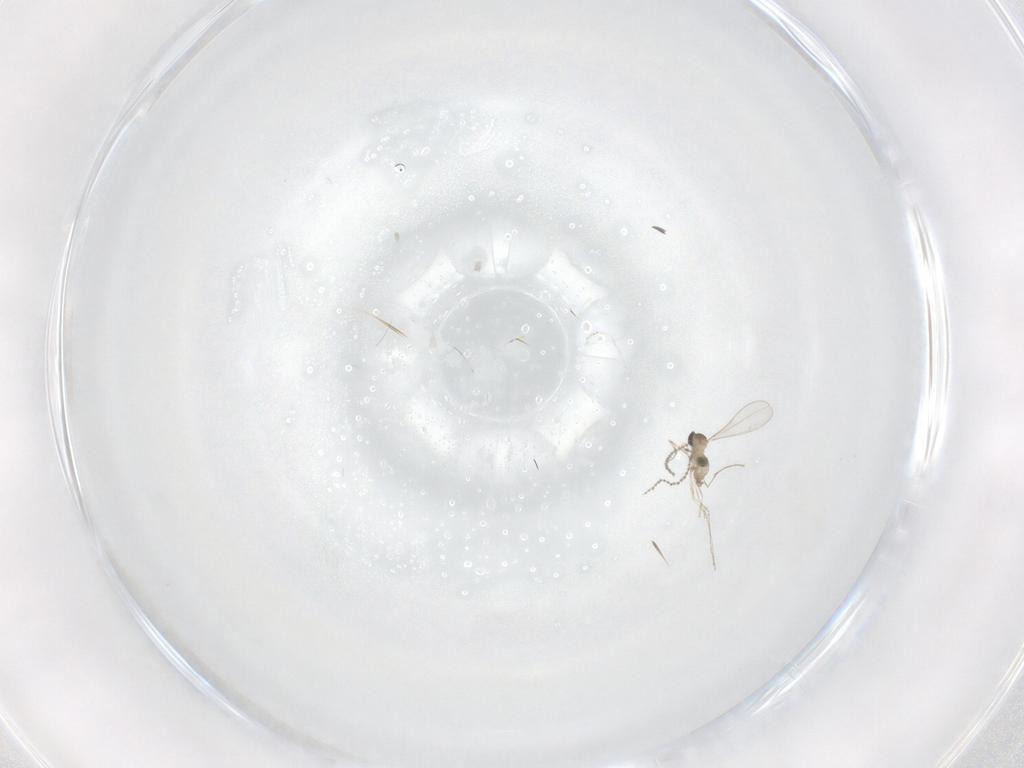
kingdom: Animalia
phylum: Arthropoda
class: Insecta
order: Diptera
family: Cecidomyiidae
